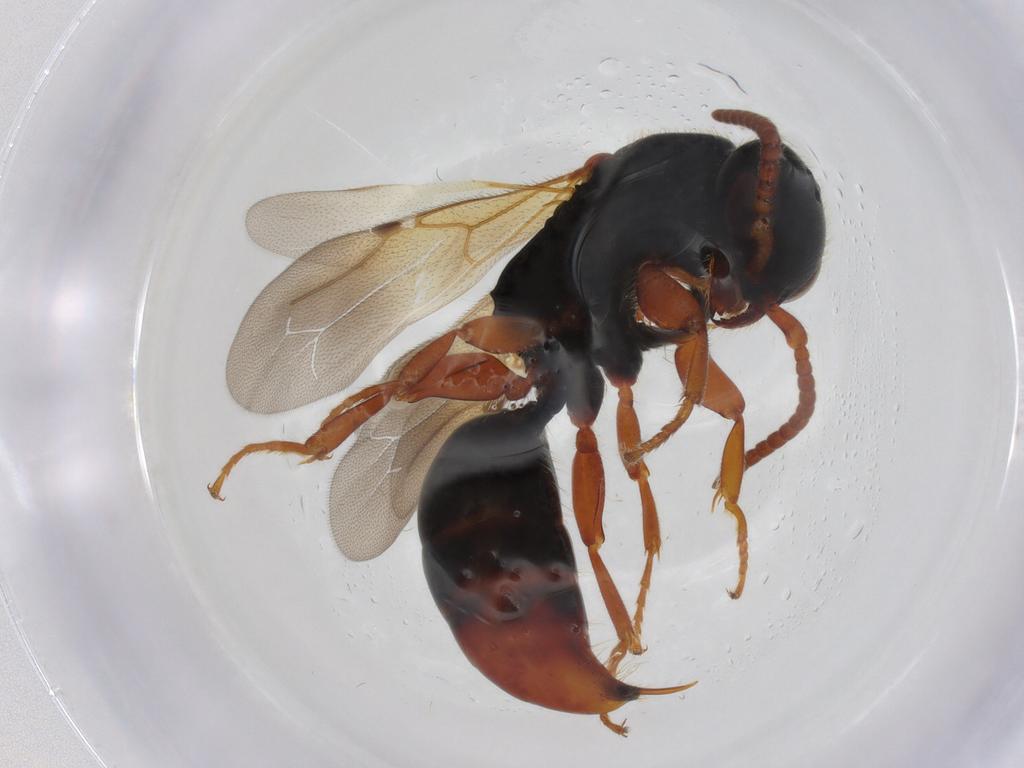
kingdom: Animalia
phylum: Arthropoda
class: Insecta
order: Hymenoptera
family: Bethylidae
